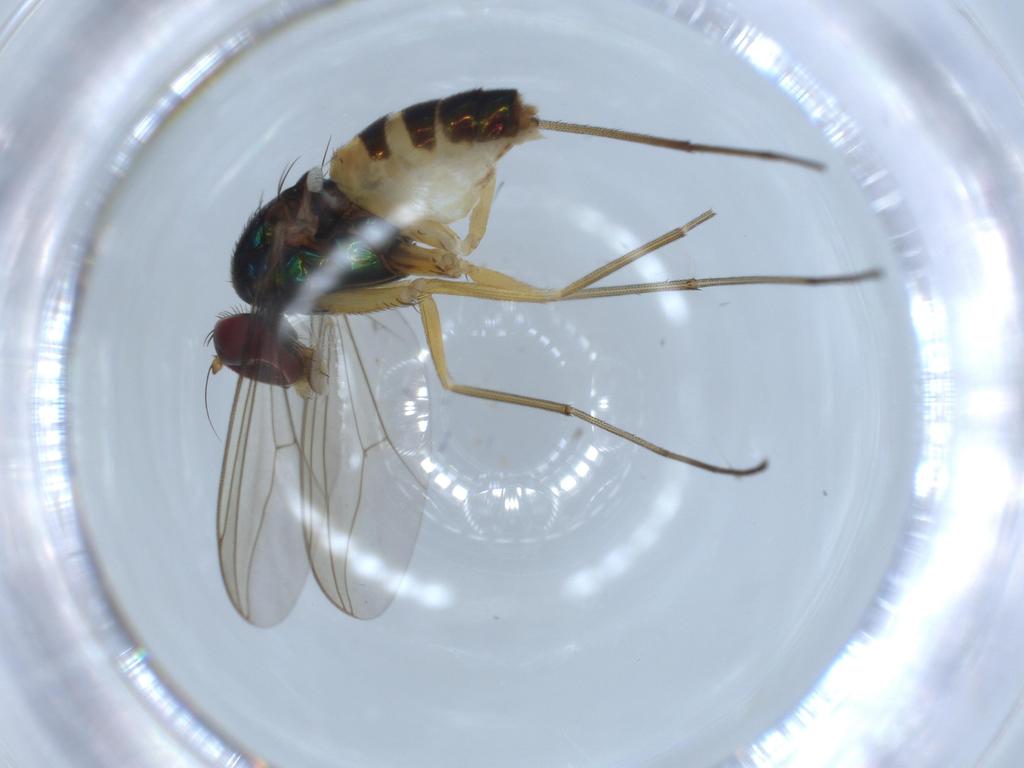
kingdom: Animalia
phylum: Arthropoda
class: Insecta
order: Diptera
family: Dolichopodidae
